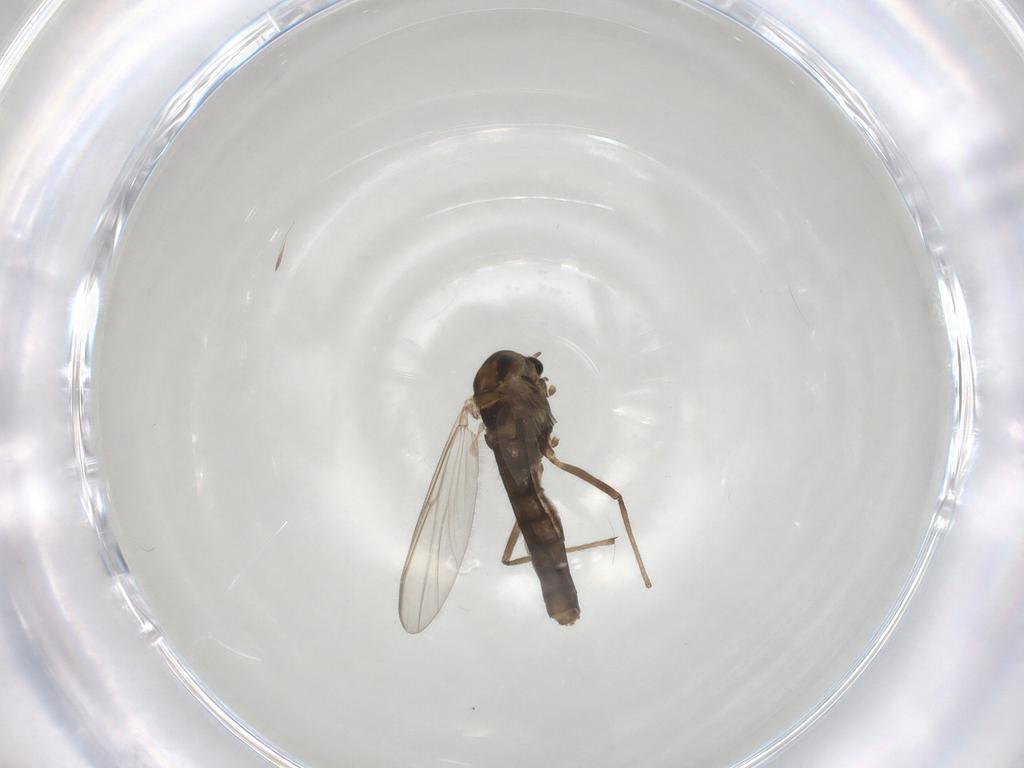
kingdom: Animalia
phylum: Arthropoda
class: Insecta
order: Diptera
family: Chironomidae
